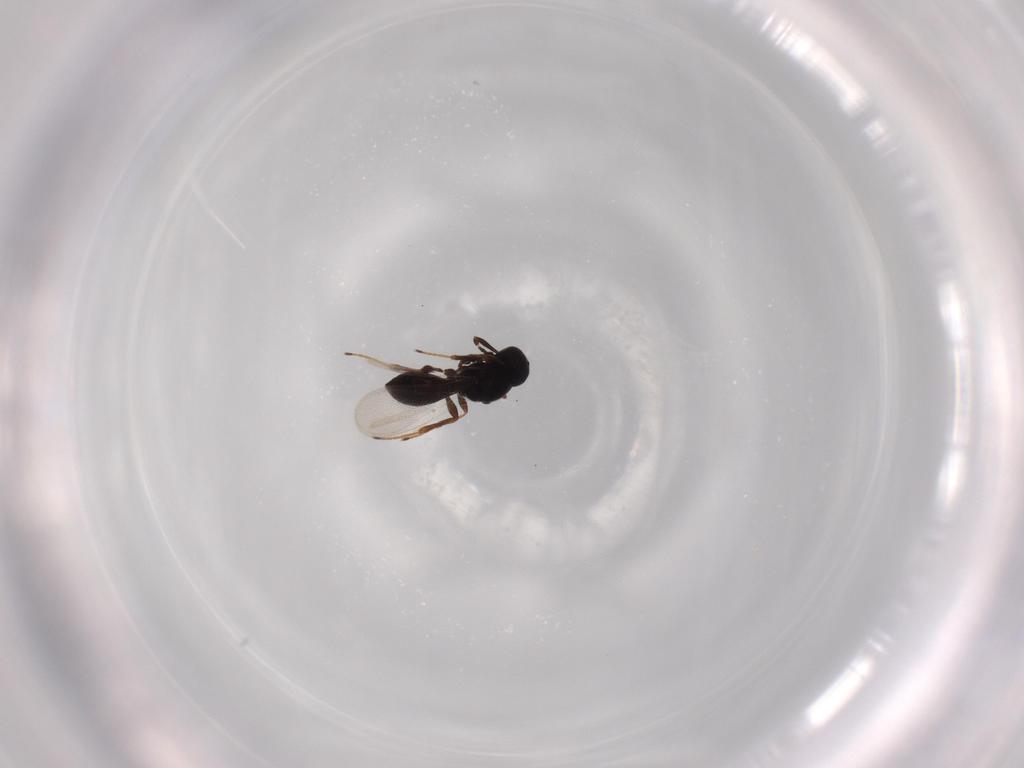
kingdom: Animalia
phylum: Arthropoda
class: Insecta
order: Hymenoptera
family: Platygastridae
